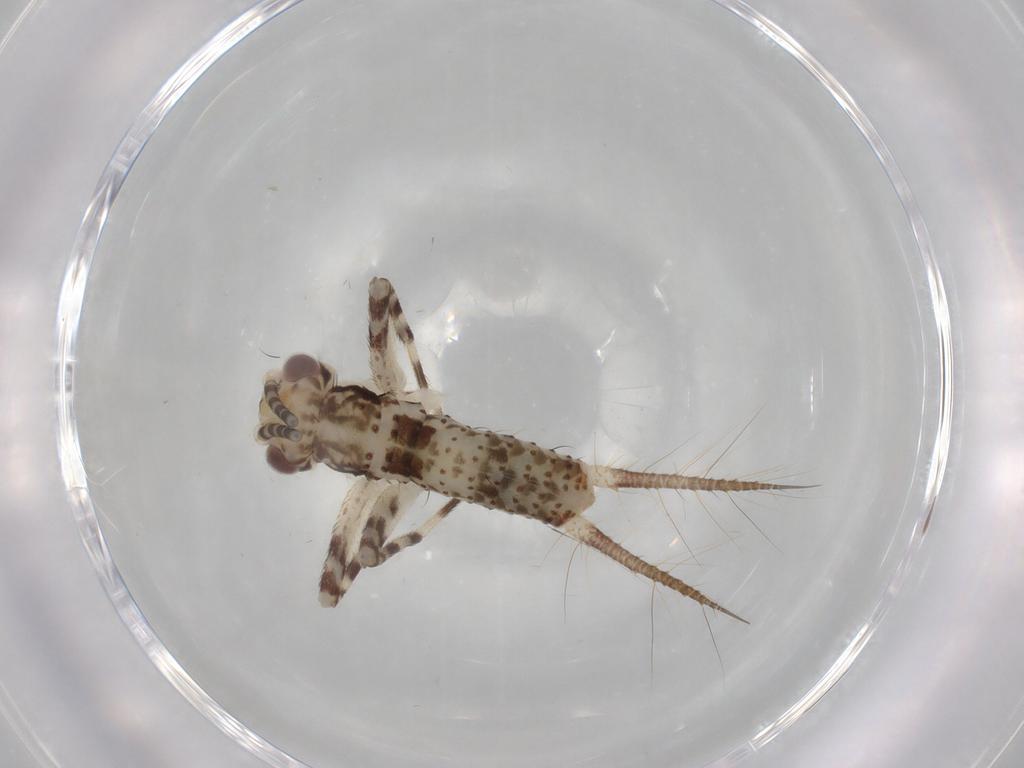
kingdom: Animalia
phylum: Arthropoda
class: Insecta
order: Orthoptera
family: Gryllidae
